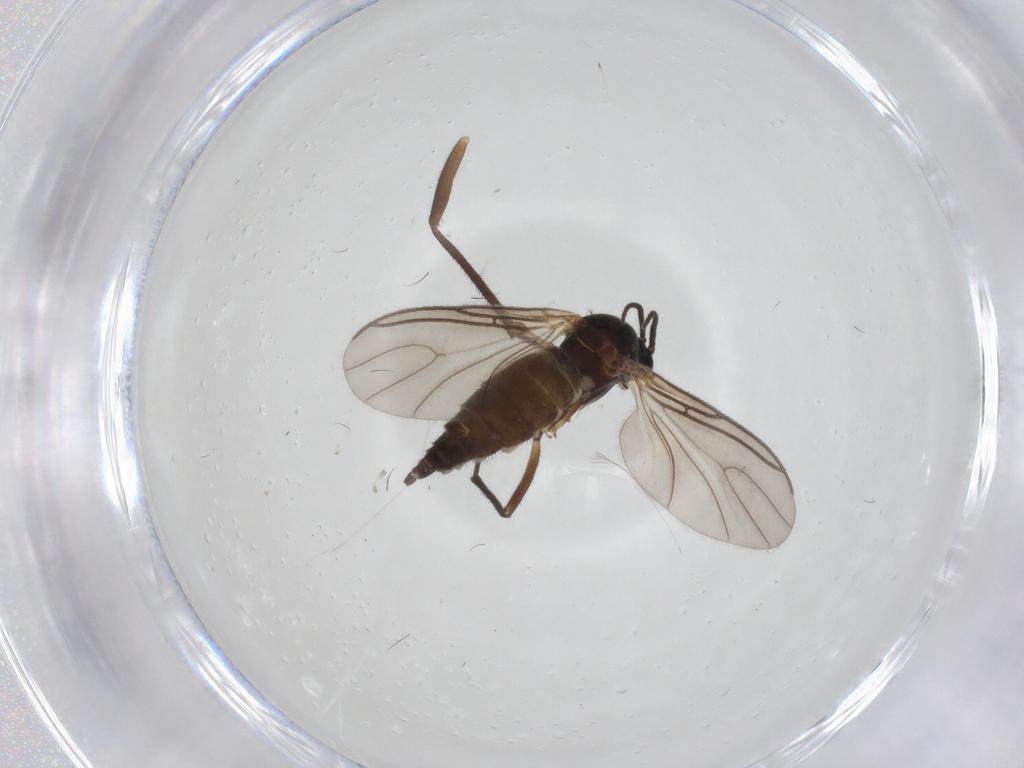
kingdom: Animalia
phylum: Arthropoda
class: Insecta
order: Diptera
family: Sciaridae
